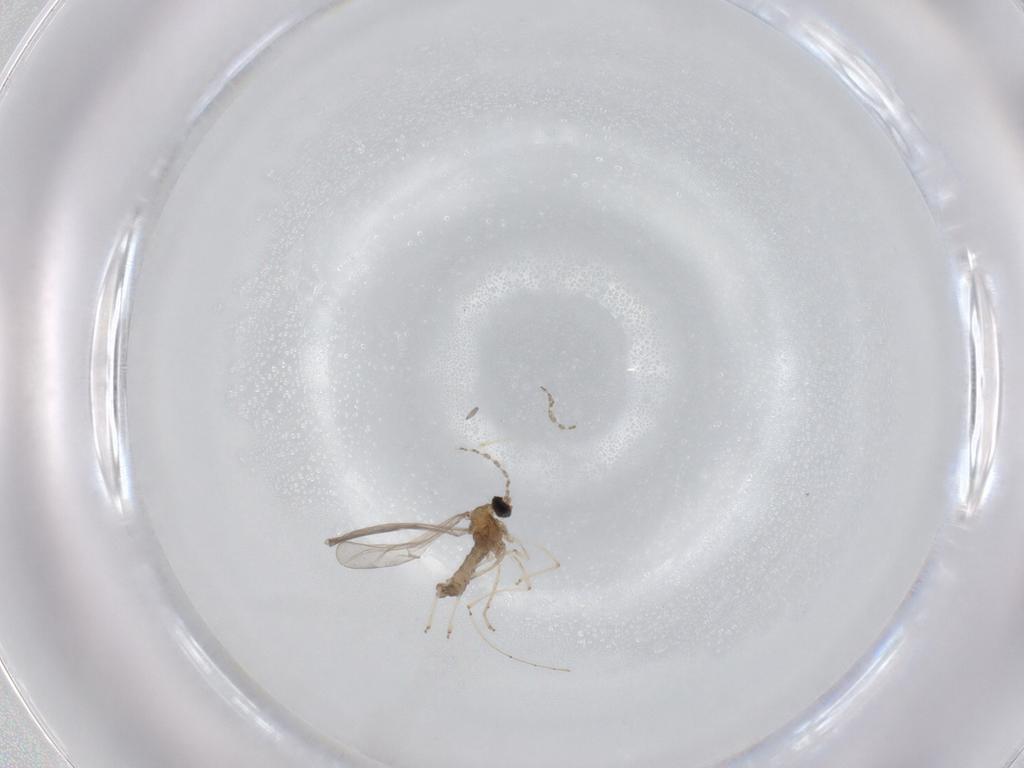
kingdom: Animalia
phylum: Arthropoda
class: Insecta
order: Diptera
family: Cecidomyiidae
